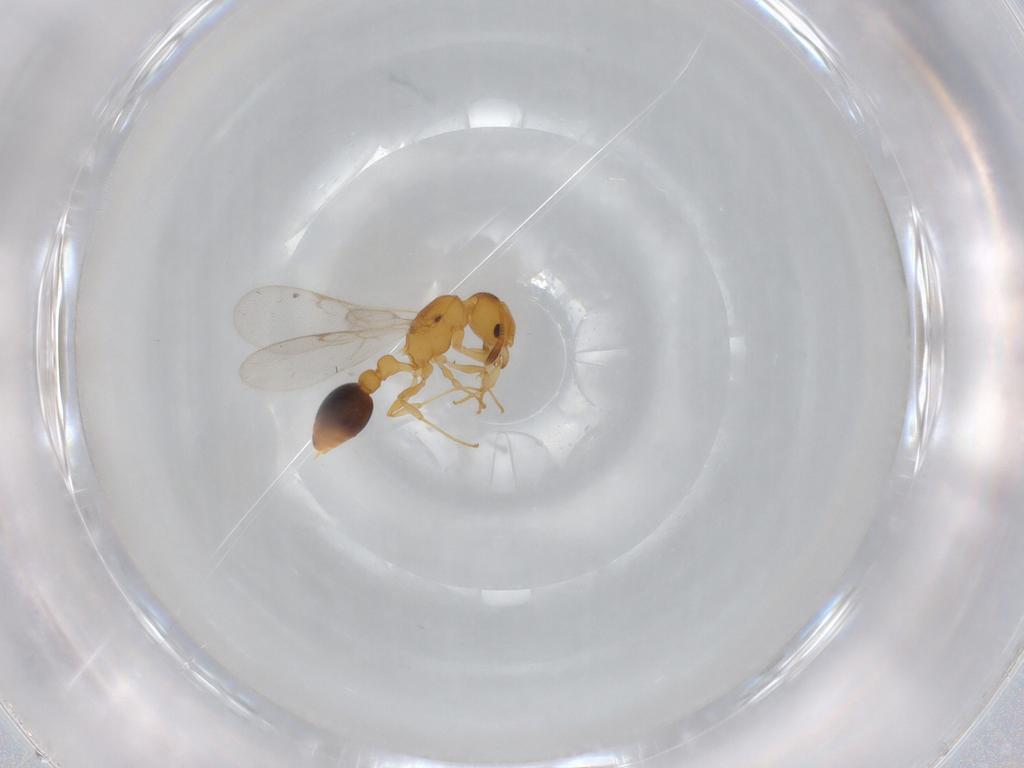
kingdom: Animalia
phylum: Arthropoda
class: Insecta
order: Hymenoptera
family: Formicidae
